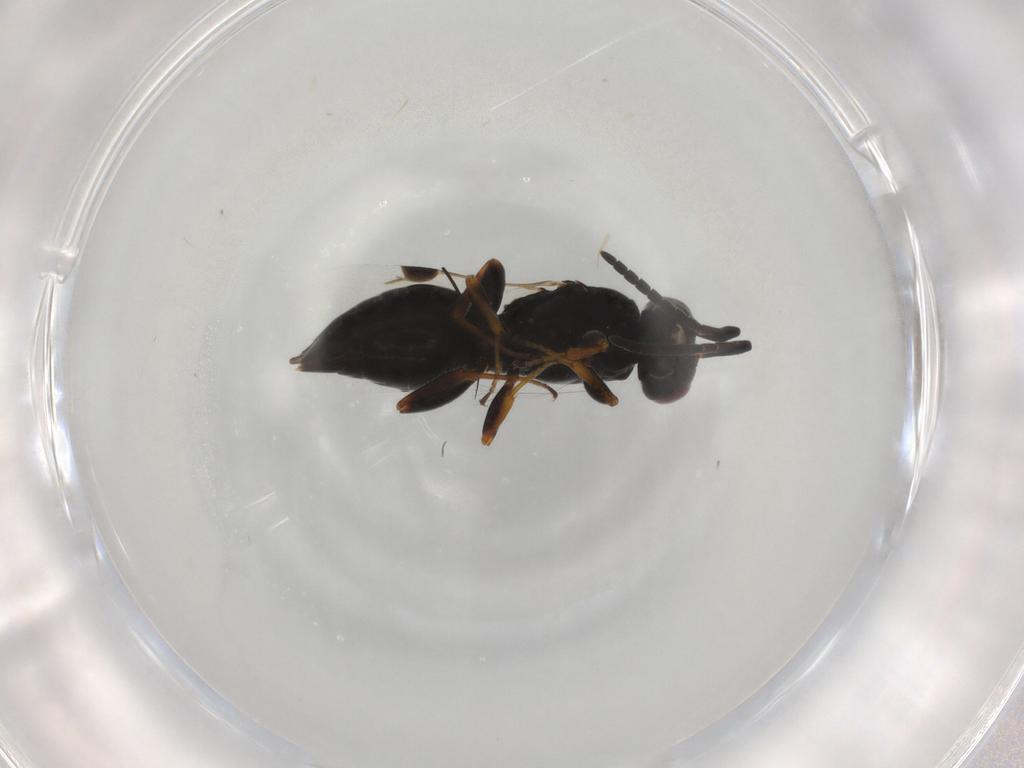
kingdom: Animalia
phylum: Arthropoda
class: Insecta
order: Hymenoptera
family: Megaspilidae
